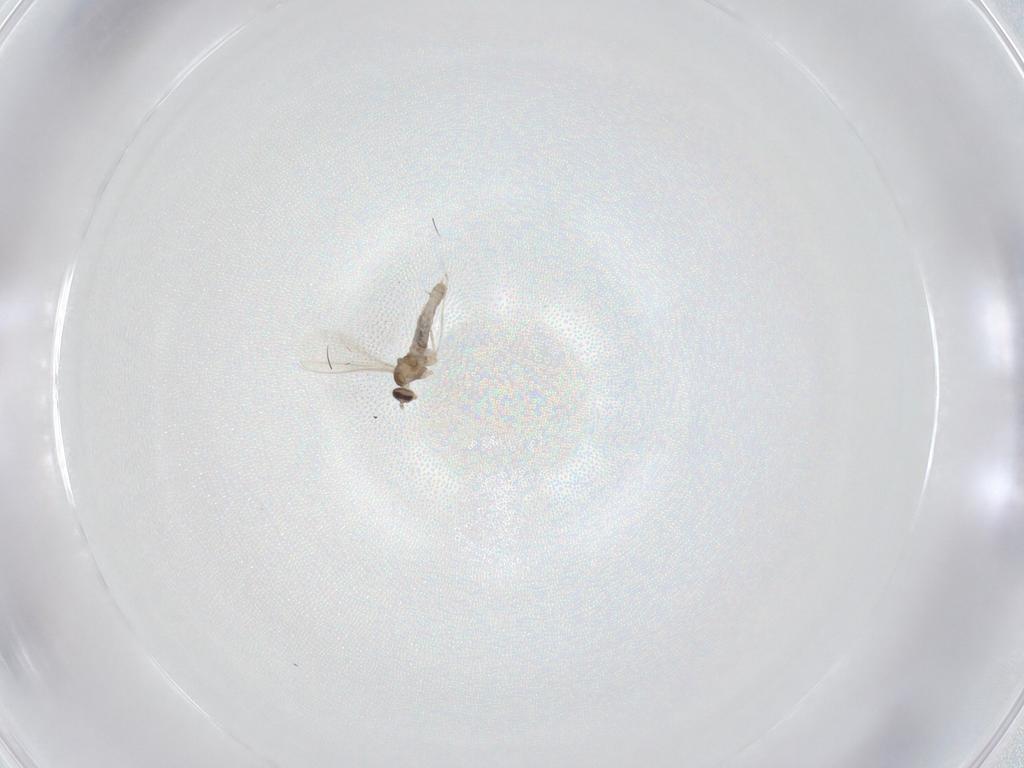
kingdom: Animalia
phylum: Arthropoda
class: Insecta
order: Diptera
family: Cecidomyiidae
